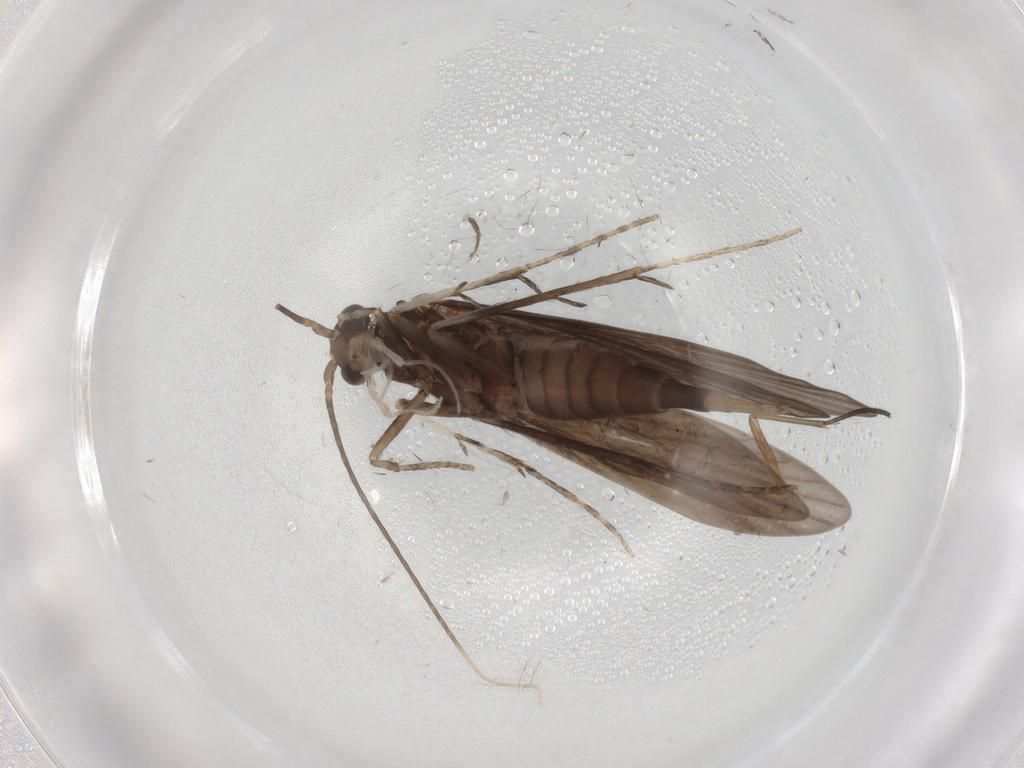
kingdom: Animalia
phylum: Arthropoda
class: Insecta
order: Trichoptera
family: Xiphocentronidae
